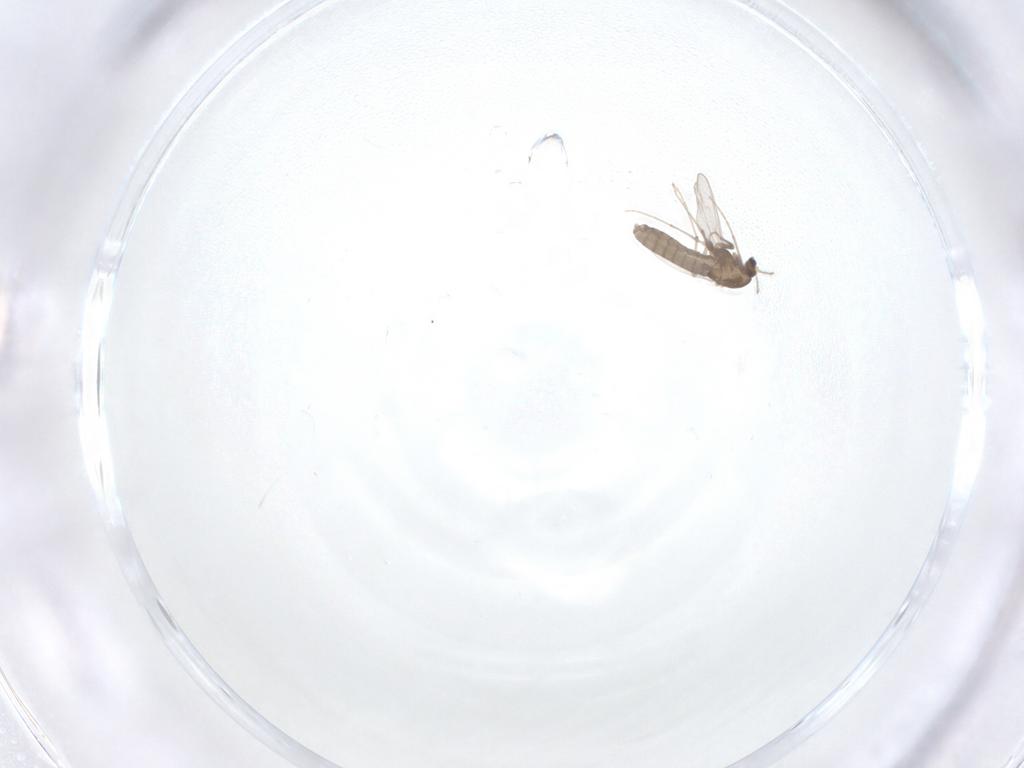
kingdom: Animalia
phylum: Arthropoda
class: Insecta
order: Diptera
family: Chironomidae
